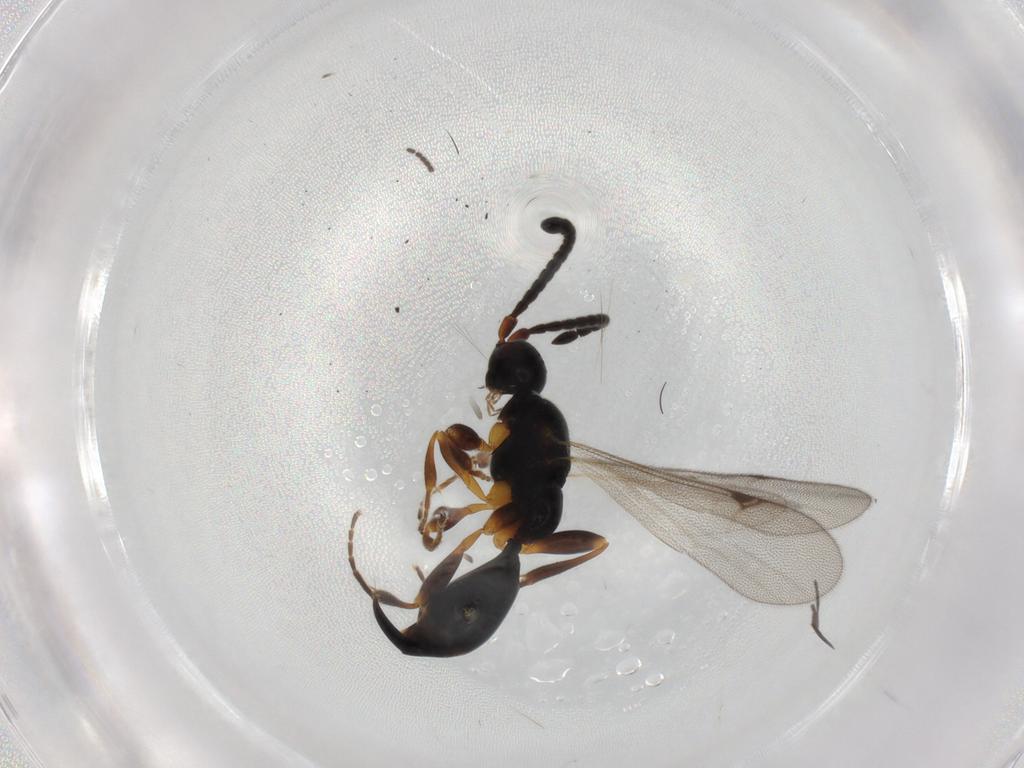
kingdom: Animalia
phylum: Arthropoda
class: Insecta
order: Hymenoptera
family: Proctotrupidae
